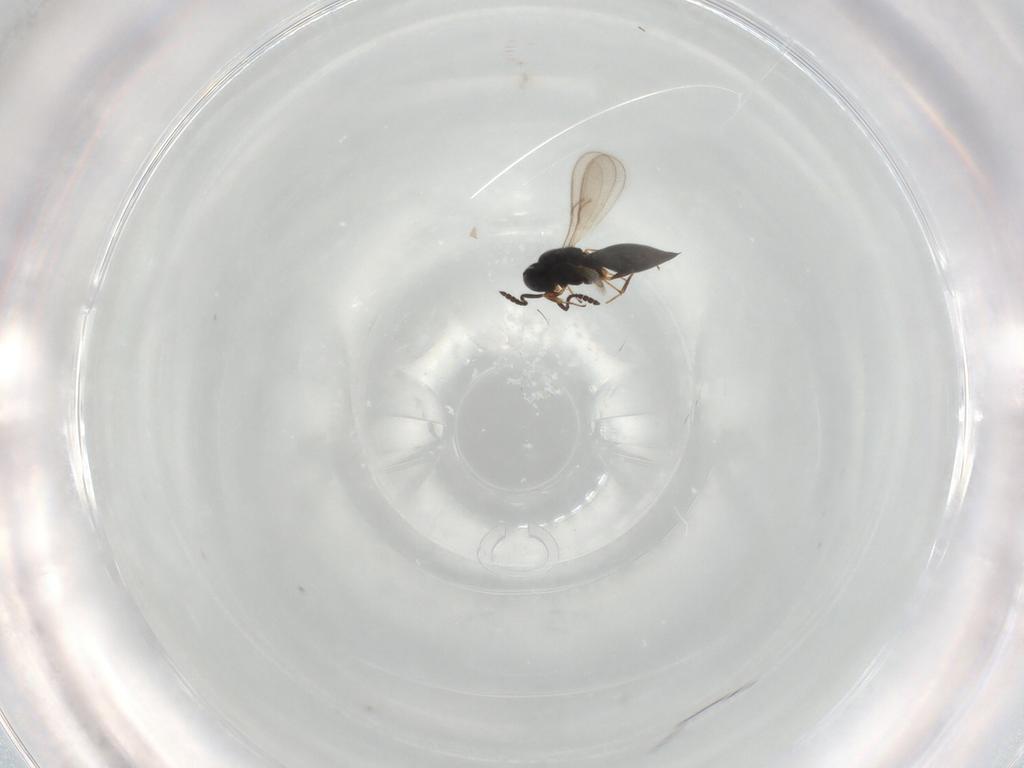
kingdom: Animalia
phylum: Arthropoda
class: Insecta
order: Hymenoptera
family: Scelionidae
